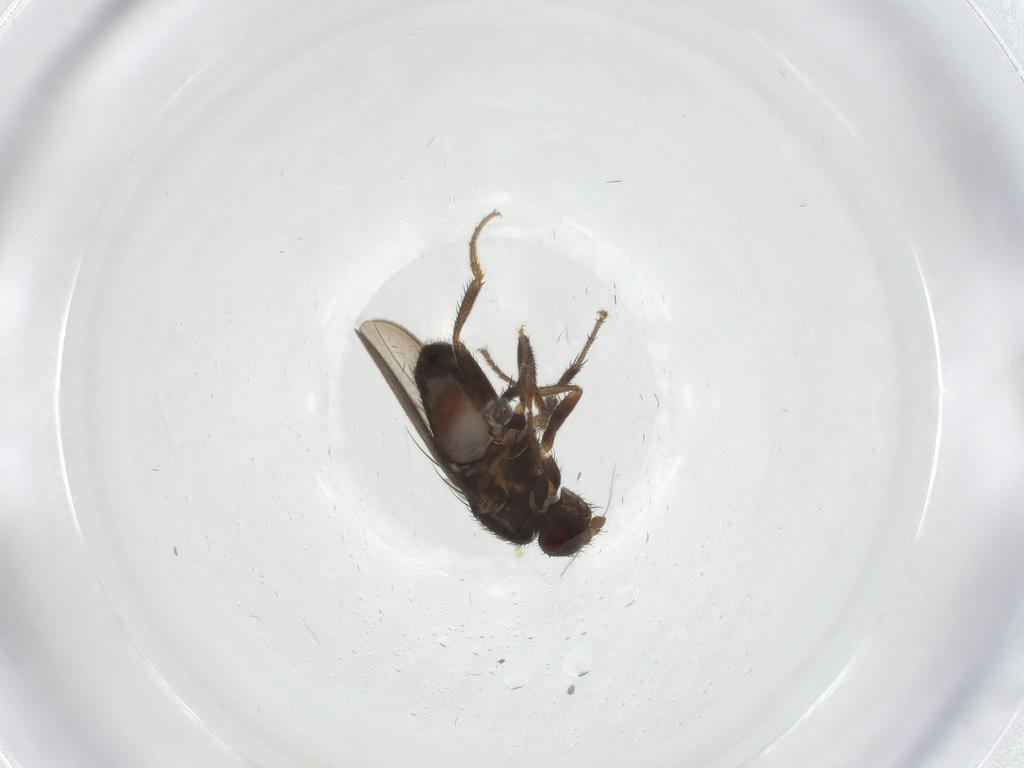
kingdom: Animalia
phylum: Arthropoda
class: Insecta
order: Diptera
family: Sphaeroceridae
